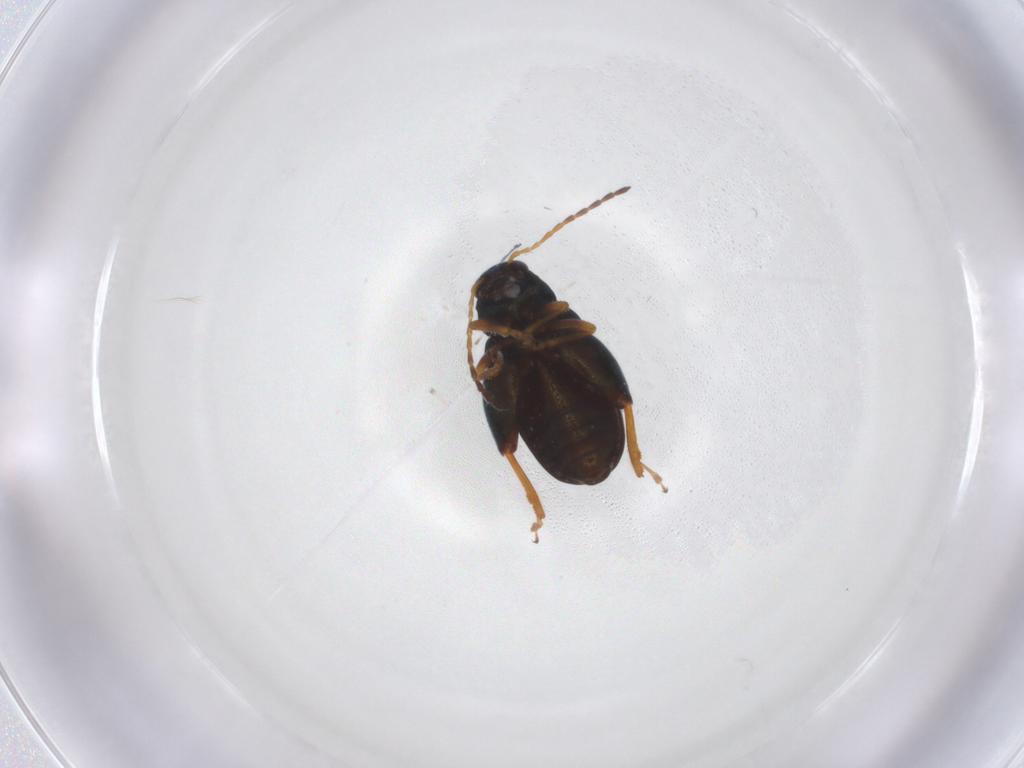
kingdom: Animalia
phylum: Arthropoda
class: Insecta
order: Coleoptera
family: Chrysomelidae
